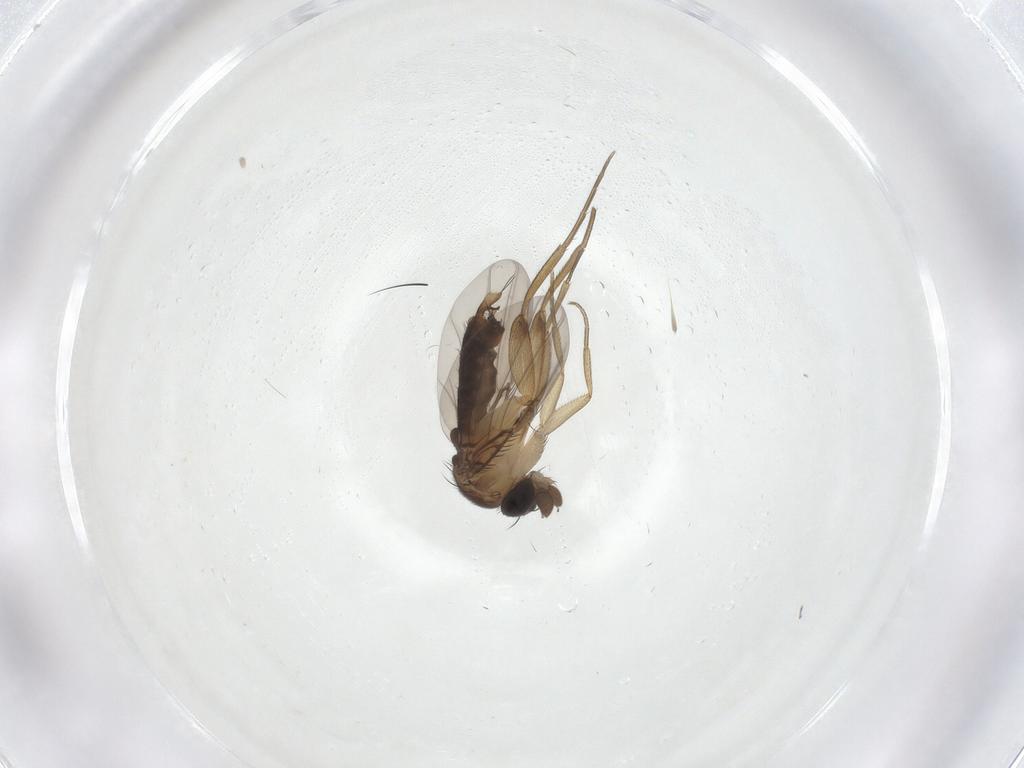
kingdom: Animalia
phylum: Arthropoda
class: Insecta
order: Diptera
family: Phoridae
